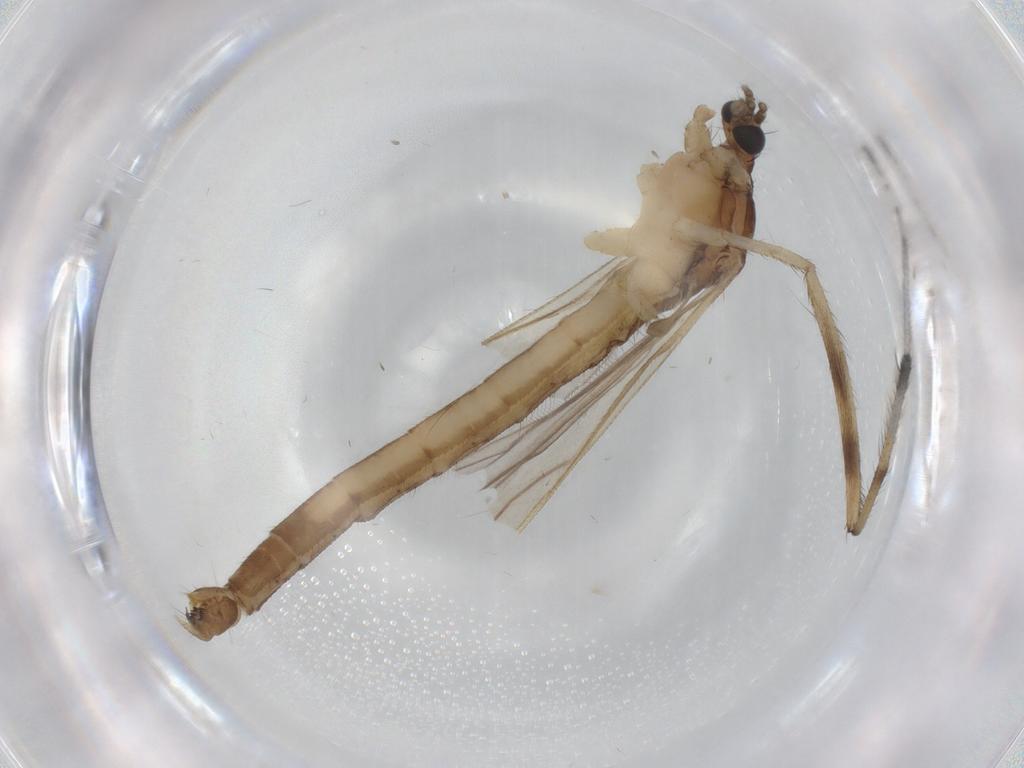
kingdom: Animalia
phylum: Arthropoda
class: Insecta
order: Diptera
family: Limoniidae
